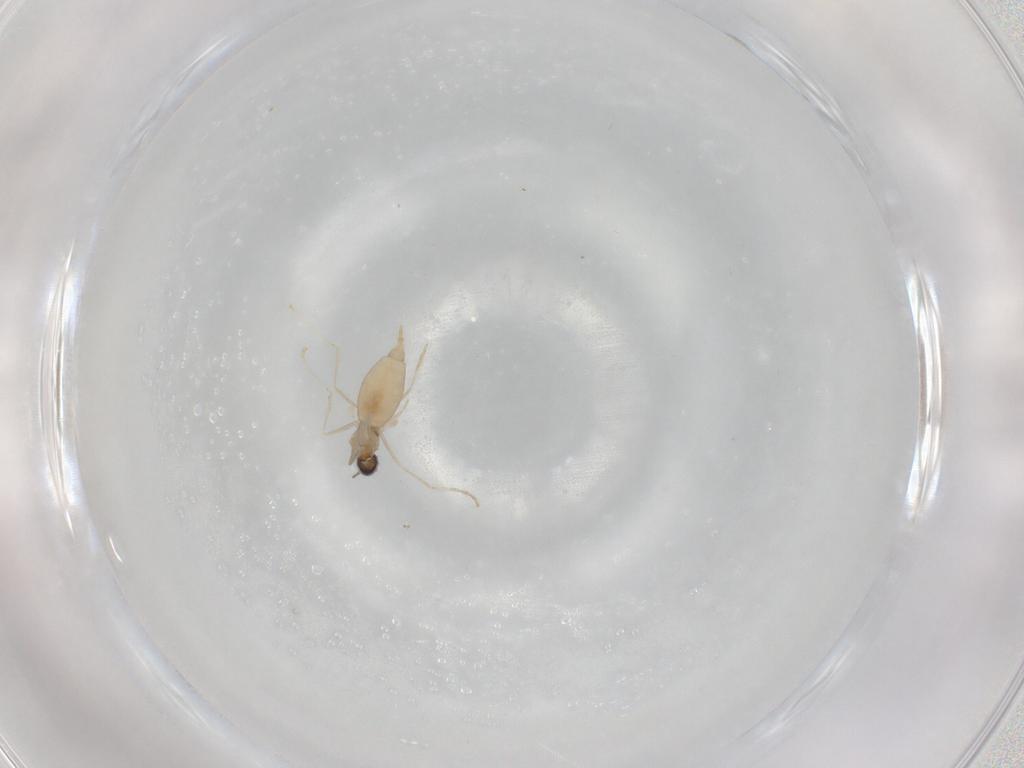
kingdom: Animalia
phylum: Arthropoda
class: Insecta
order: Diptera
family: Cecidomyiidae
